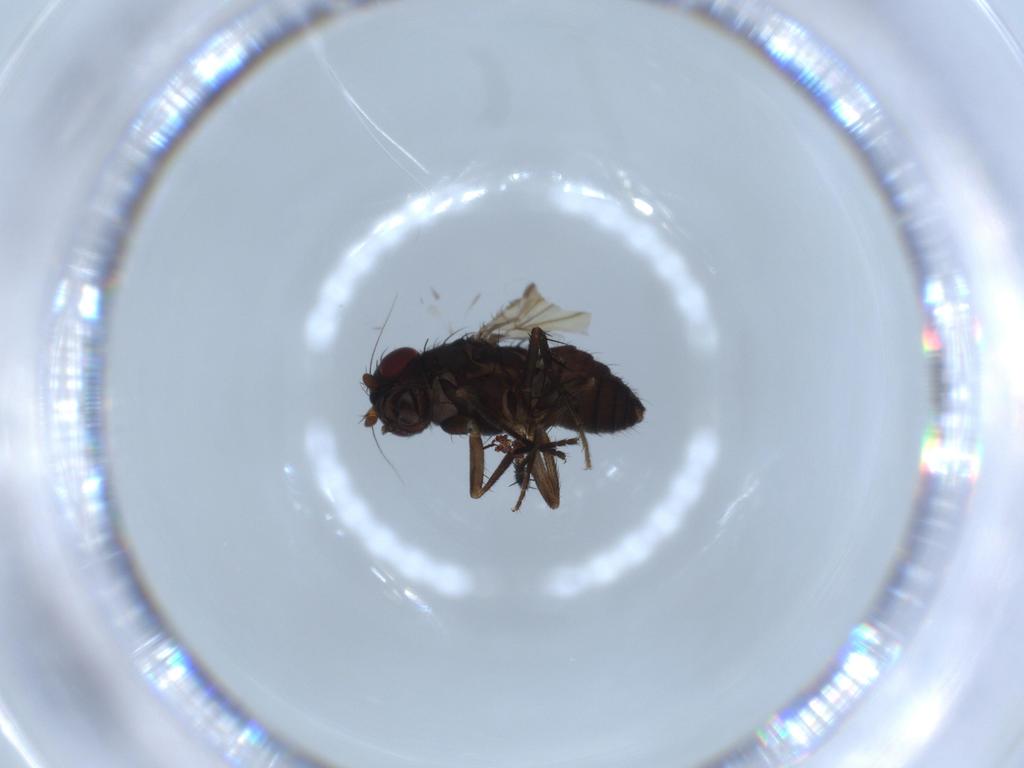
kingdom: Animalia
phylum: Arthropoda
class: Insecta
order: Diptera
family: Cecidomyiidae
